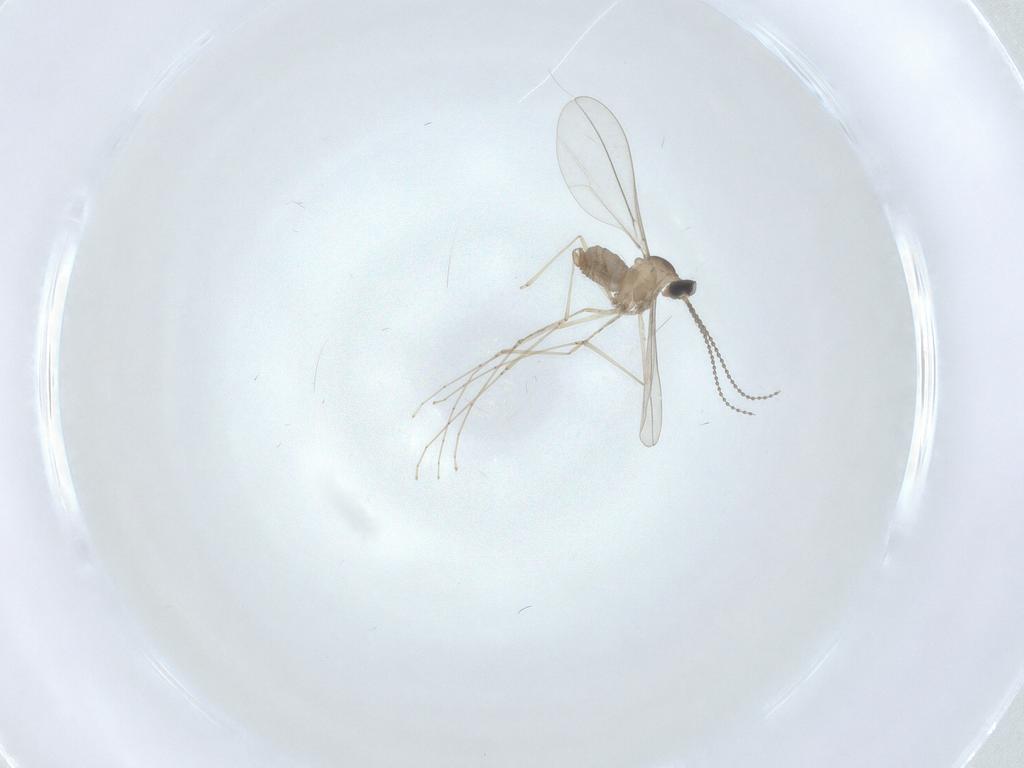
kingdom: Animalia
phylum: Arthropoda
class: Insecta
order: Diptera
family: Cecidomyiidae
